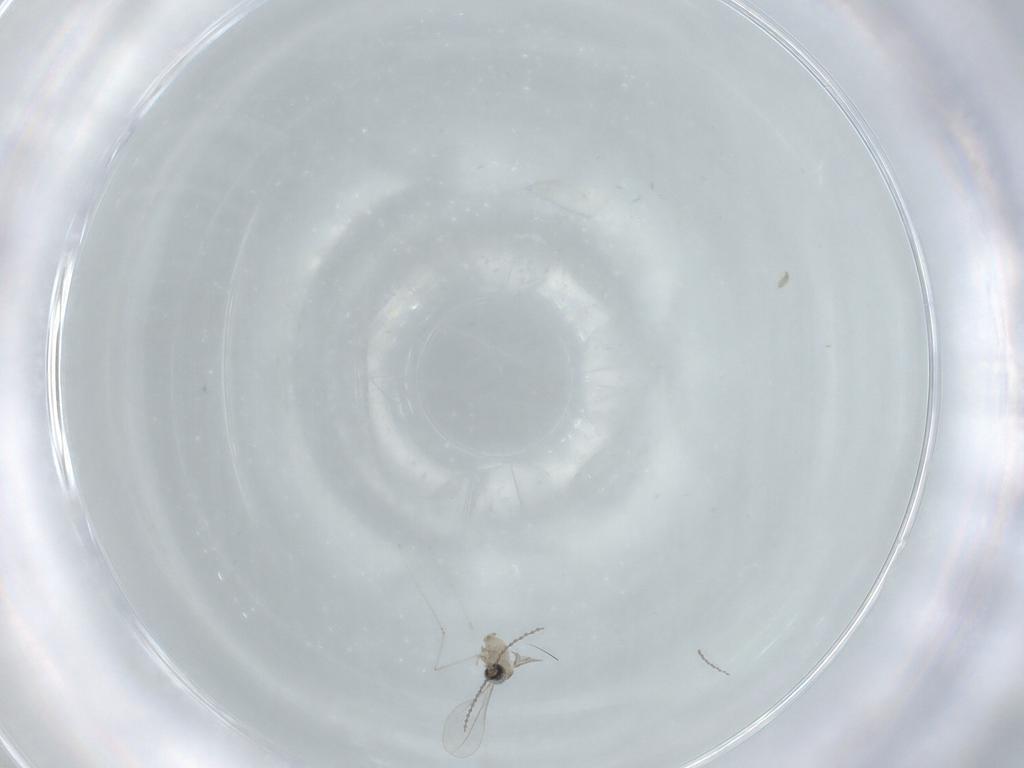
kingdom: Animalia
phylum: Arthropoda
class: Insecta
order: Diptera
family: Cecidomyiidae
